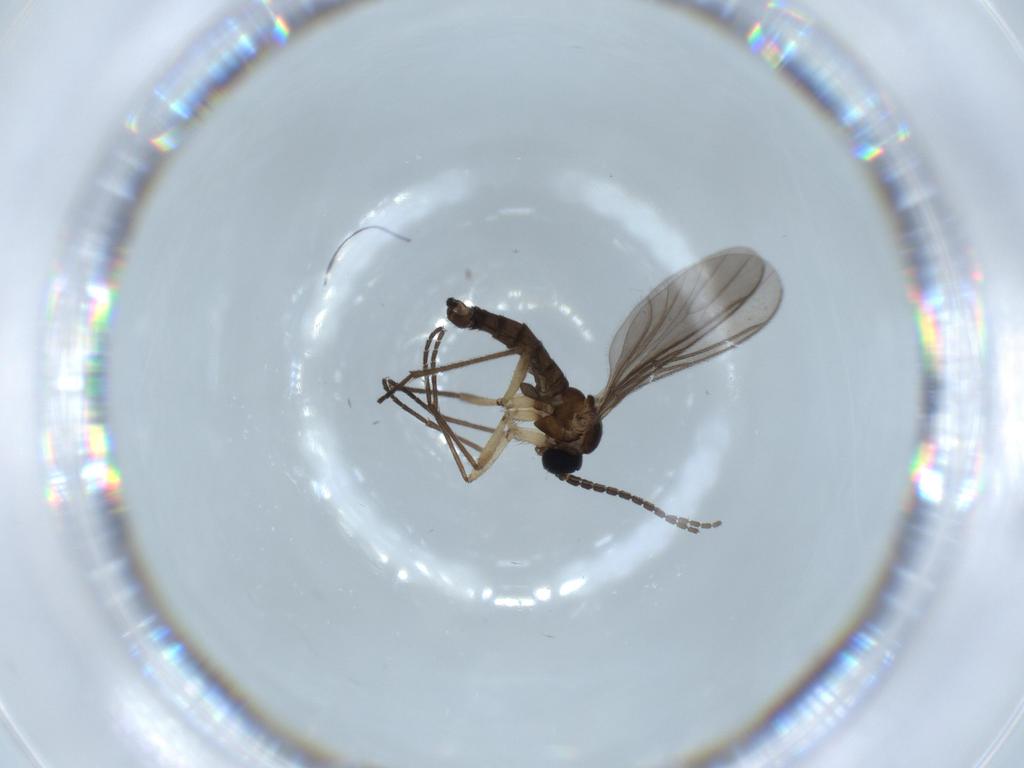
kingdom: Animalia
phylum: Arthropoda
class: Insecta
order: Diptera
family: Sciaridae
